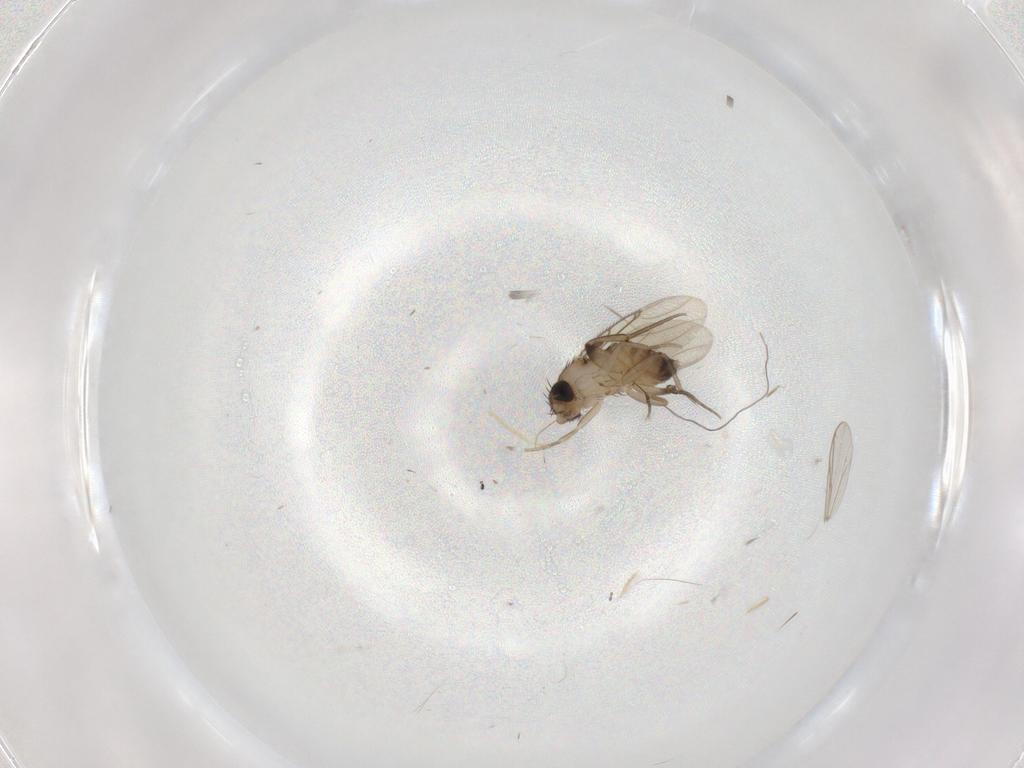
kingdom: Animalia
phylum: Arthropoda
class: Insecta
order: Diptera
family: Phoridae
